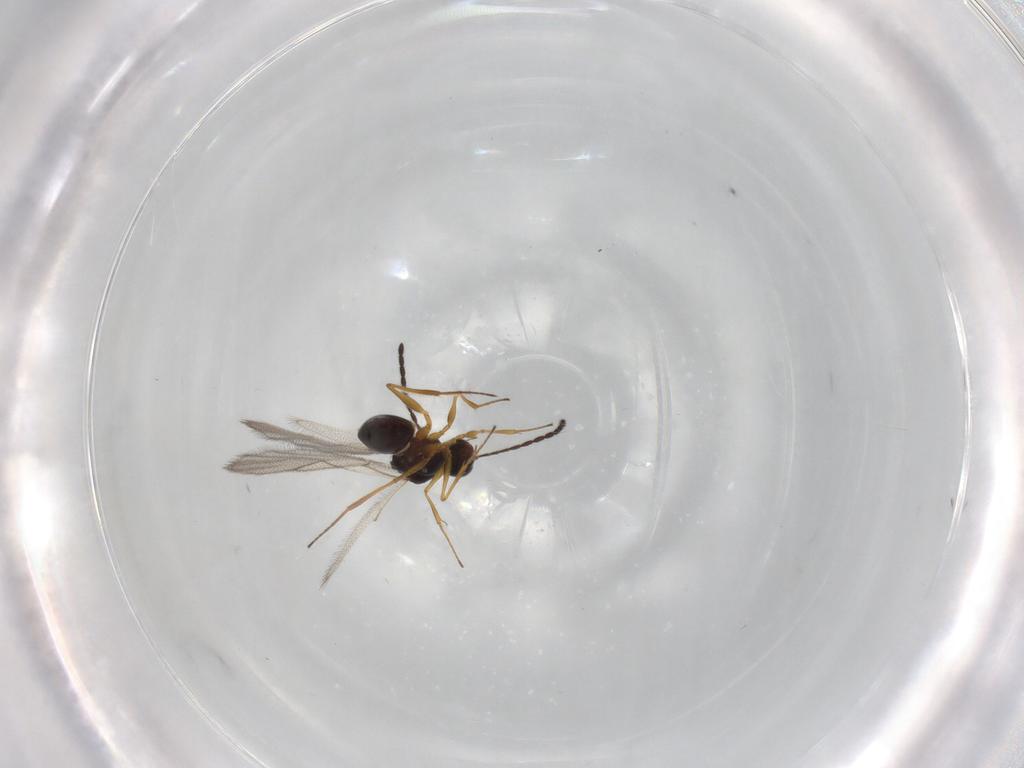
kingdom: Animalia
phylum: Arthropoda
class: Insecta
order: Hymenoptera
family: Figitidae
